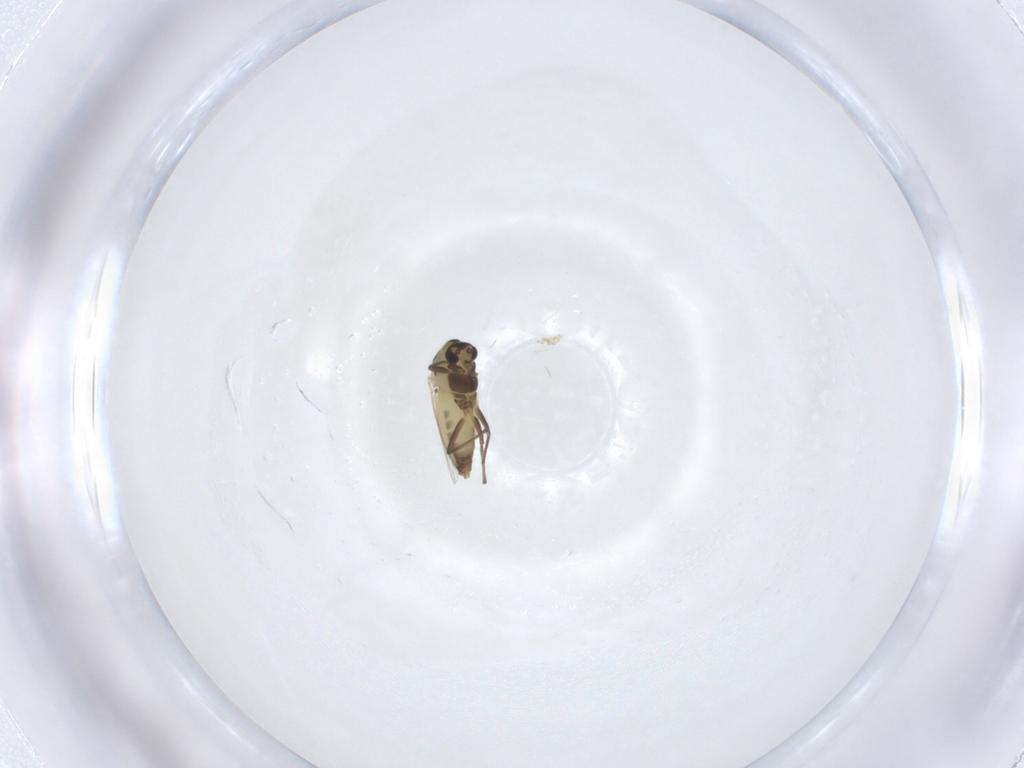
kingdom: Animalia
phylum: Arthropoda
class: Insecta
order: Diptera
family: Chironomidae
